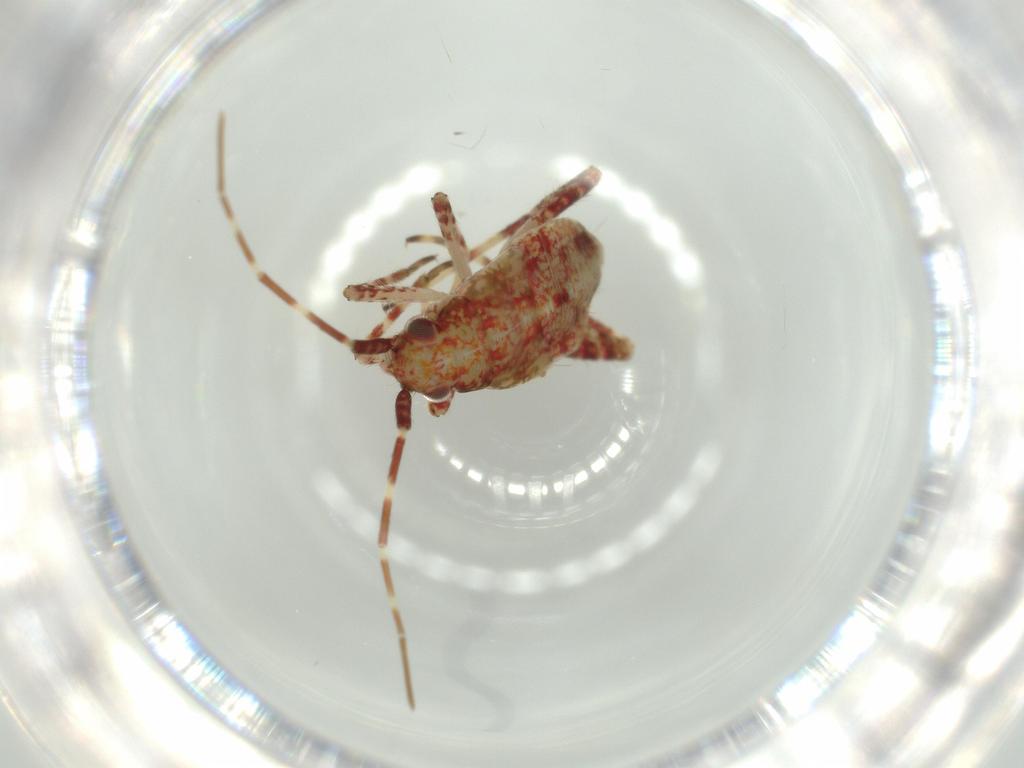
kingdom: Animalia
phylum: Arthropoda
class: Insecta
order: Hemiptera
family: Miridae
